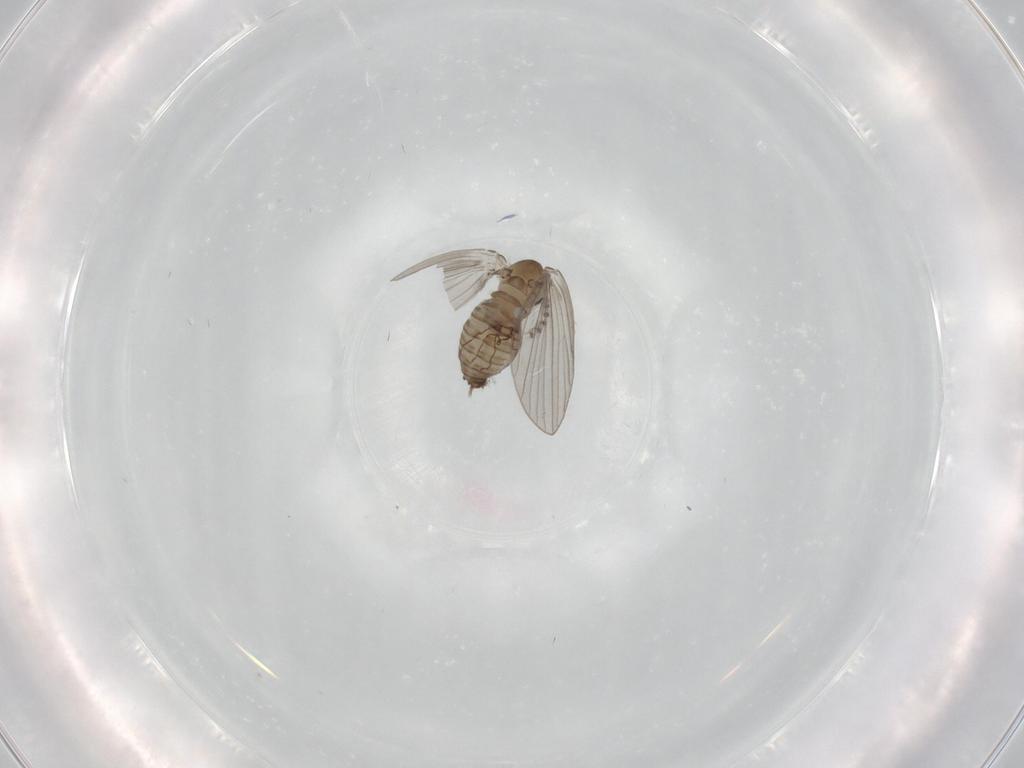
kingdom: Animalia
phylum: Arthropoda
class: Insecta
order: Diptera
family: Psychodidae
